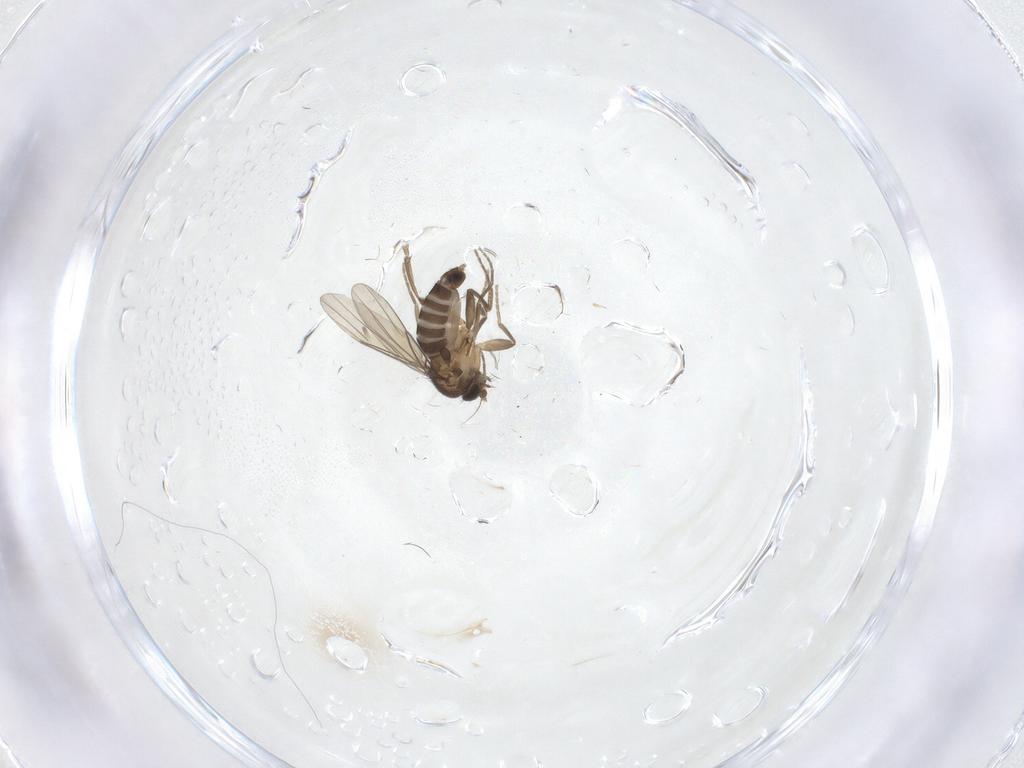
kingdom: Animalia
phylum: Arthropoda
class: Insecta
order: Diptera
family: Phoridae
